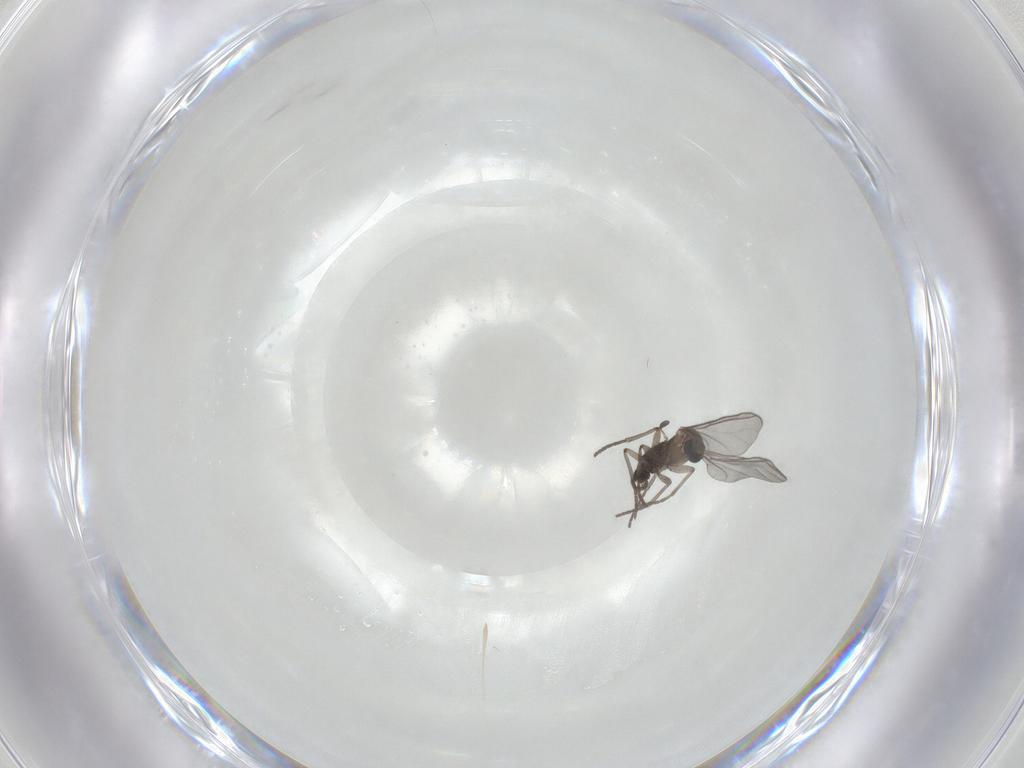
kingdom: Animalia
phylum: Arthropoda
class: Insecta
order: Diptera
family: Sciaridae
